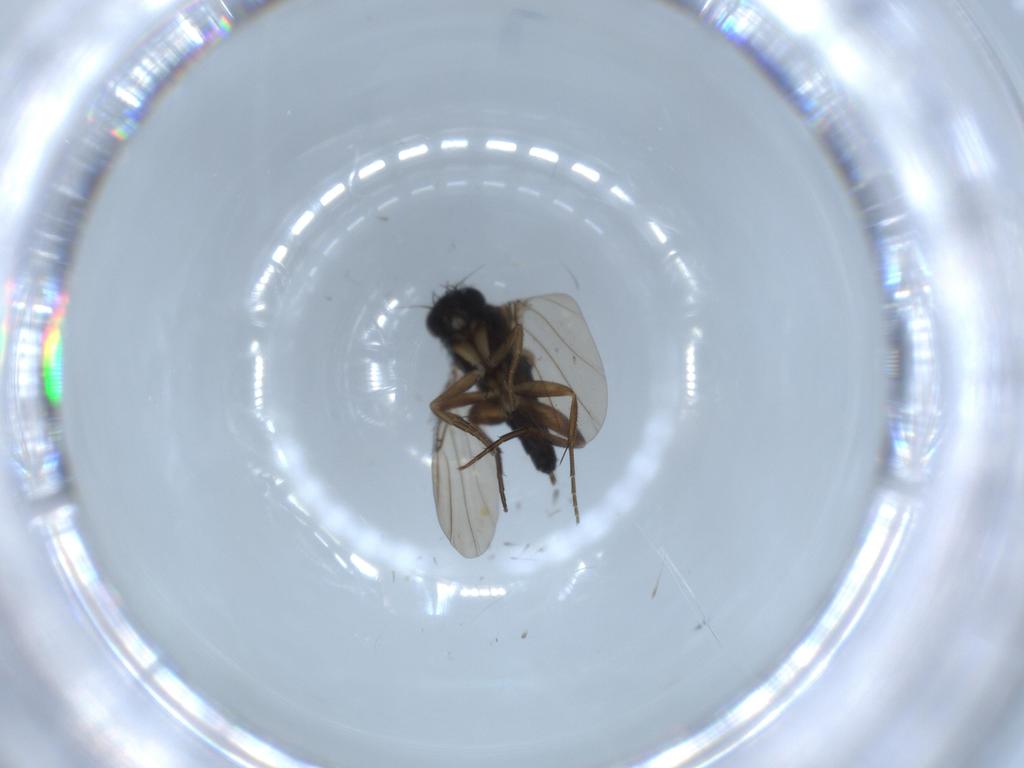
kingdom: Animalia
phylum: Arthropoda
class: Insecta
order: Diptera
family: Phoridae
